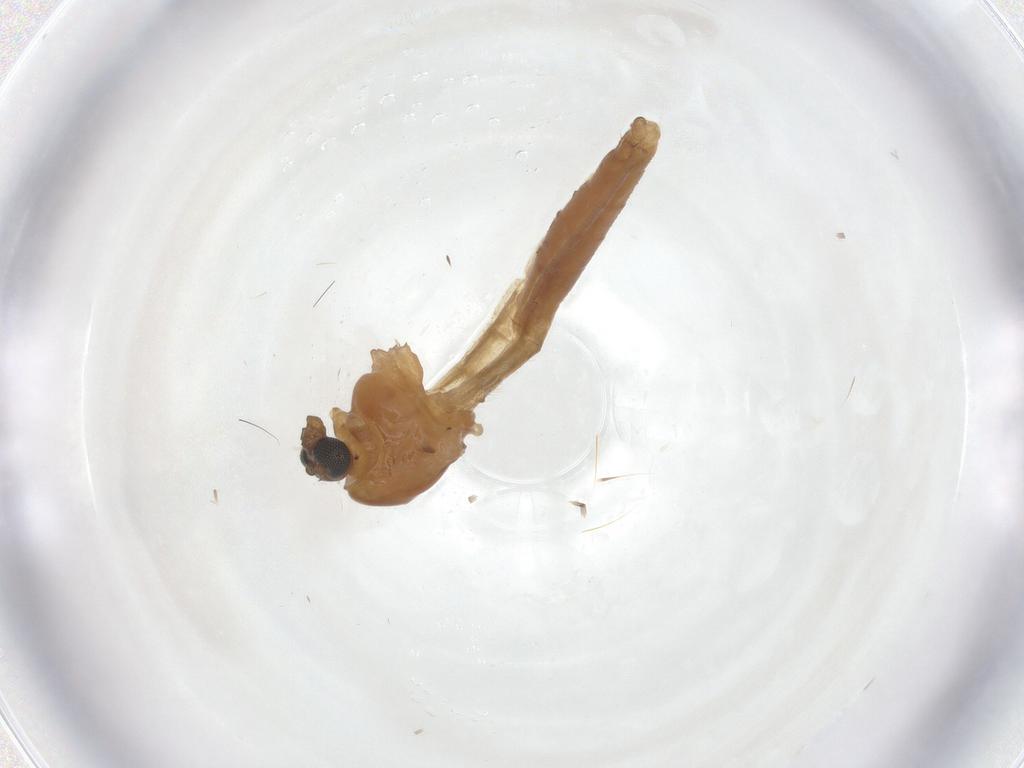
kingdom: Animalia
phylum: Arthropoda
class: Insecta
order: Diptera
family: Chironomidae
